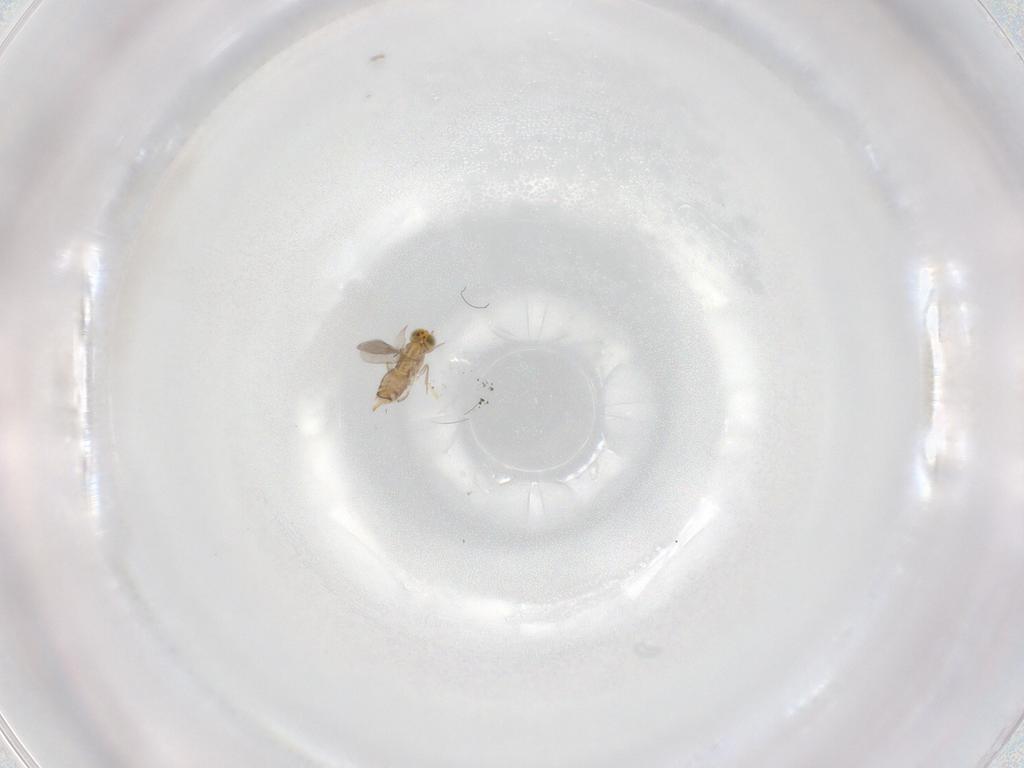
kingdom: Animalia
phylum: Arthropoda
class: Insecta
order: Hymenoptera
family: Aphelinidae
